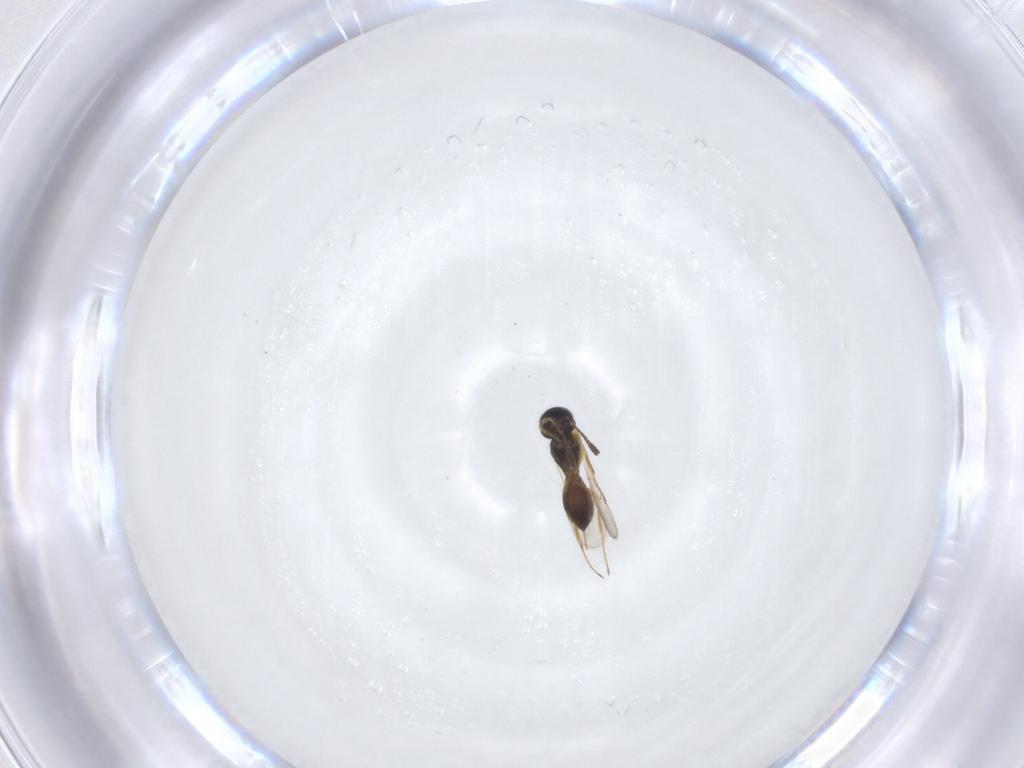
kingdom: Animalia
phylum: Arthropoda
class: Insecta
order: Hymenoptera
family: Scelionidae
